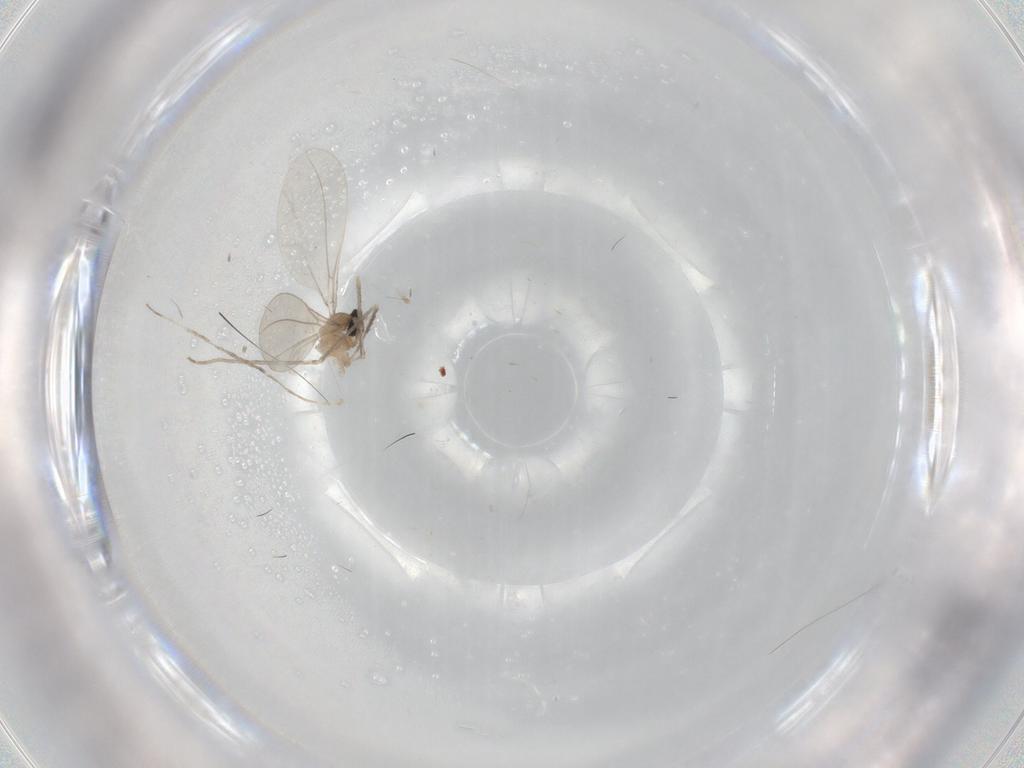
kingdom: Animalia
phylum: Arthropoda
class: Insecta
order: Diptera
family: Cecidomyiidae
